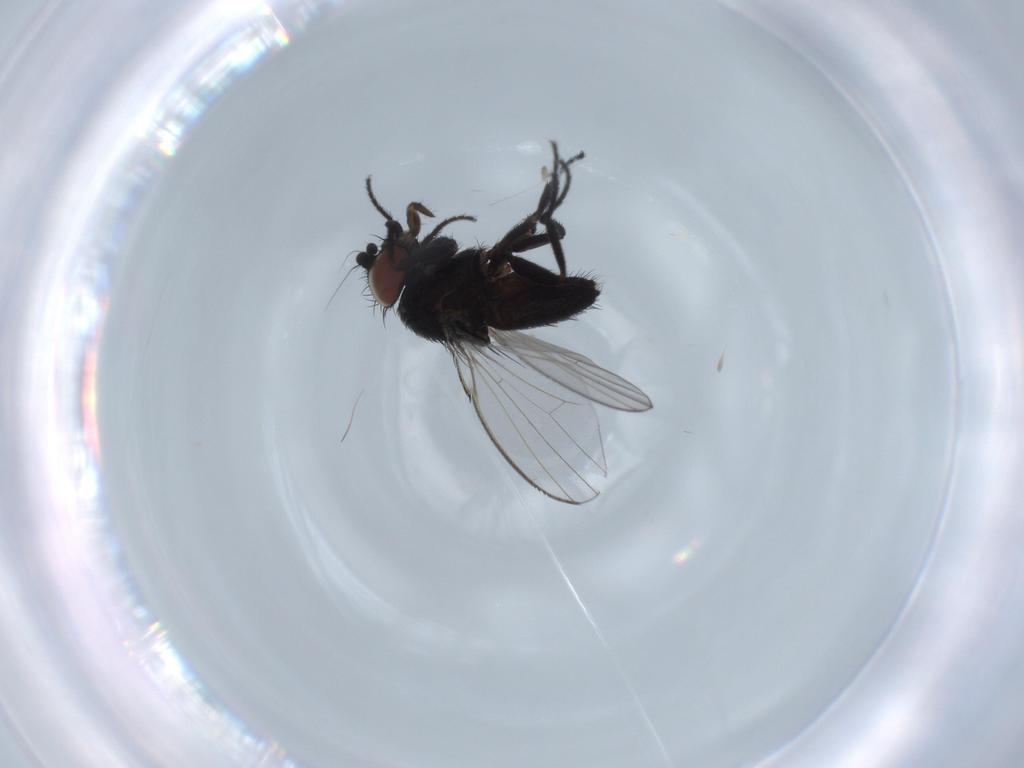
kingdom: Animalia
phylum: Arthropoda
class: Insecta
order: Diptera
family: Milichiidae
